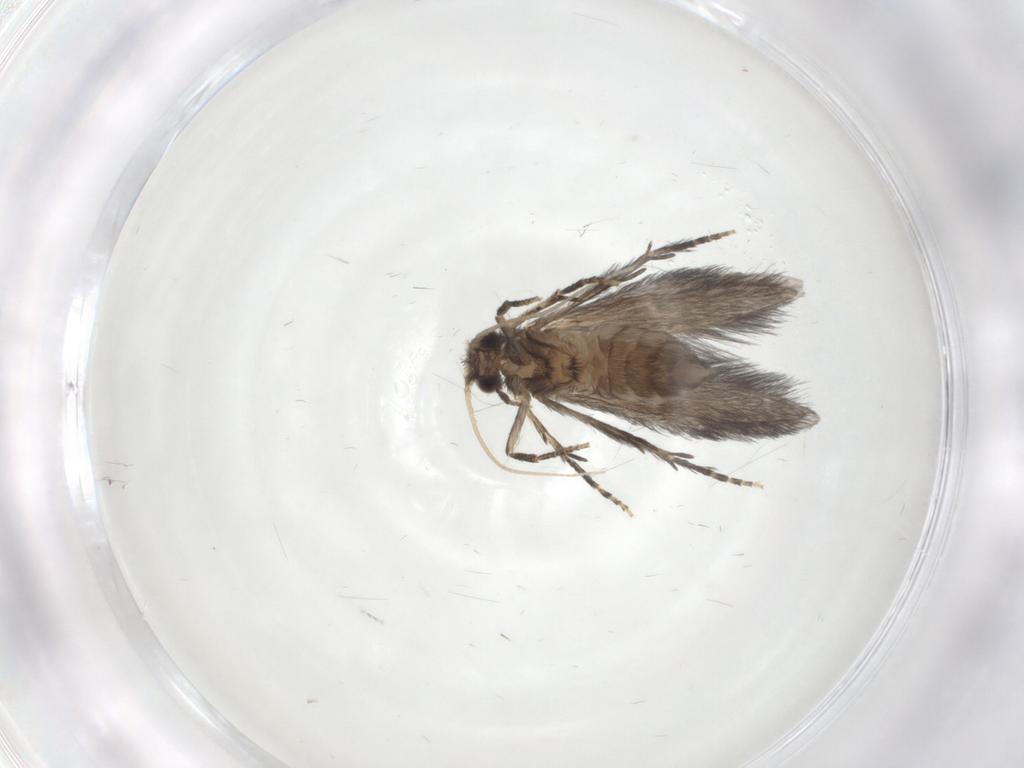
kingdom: Animalia
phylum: Arthropoda
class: Insecta
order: Trichoptera
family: Hydroptilidae
